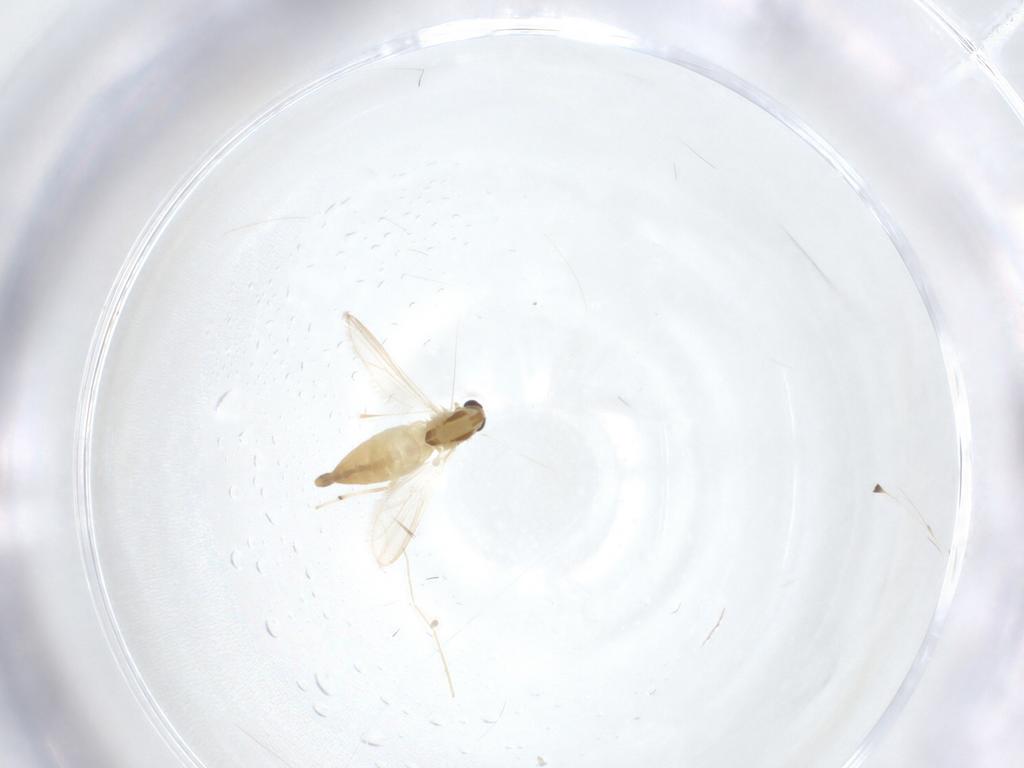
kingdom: Animalia
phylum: Arthropoda
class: Insecta
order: Diptera
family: Chironomidae
